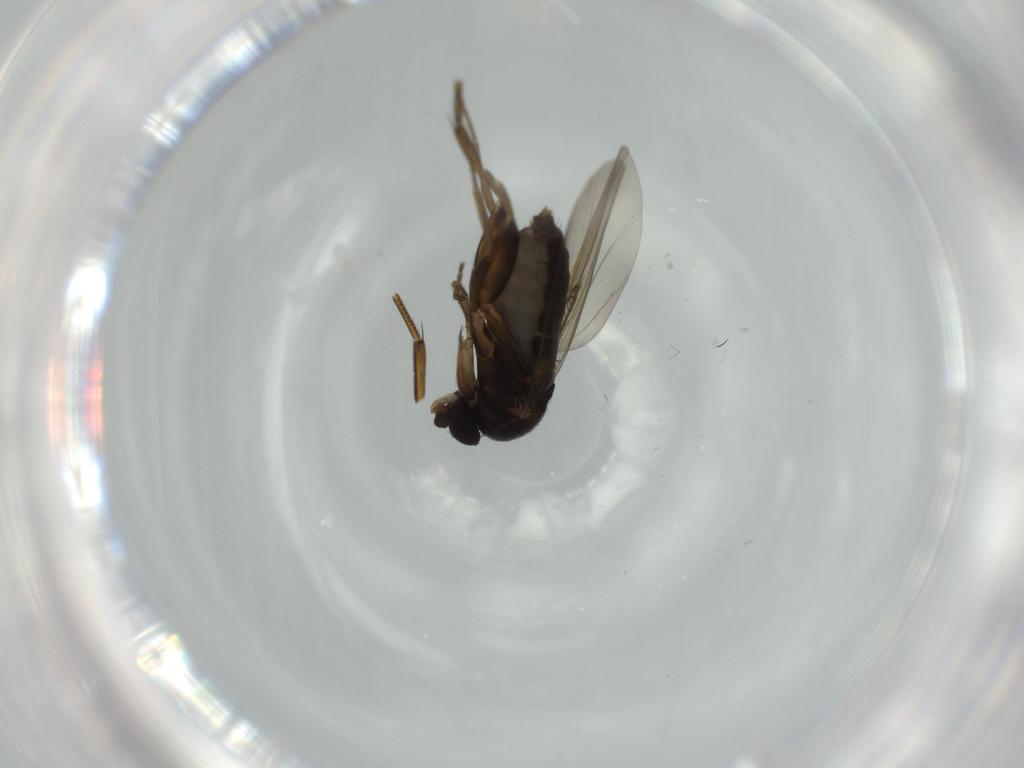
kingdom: Animalia
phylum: Arthropoda
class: Insecta
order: Diptera
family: Phoridae
